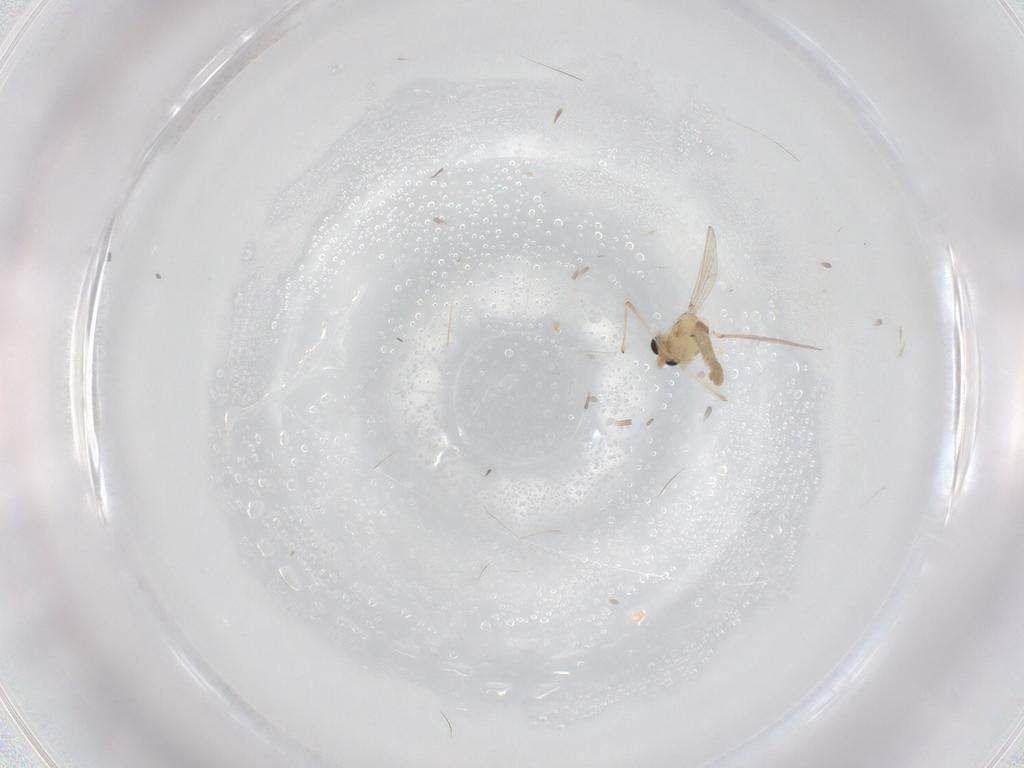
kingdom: Animalia
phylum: Arthropoda
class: Insecta
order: Diptera
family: Chironomidae
